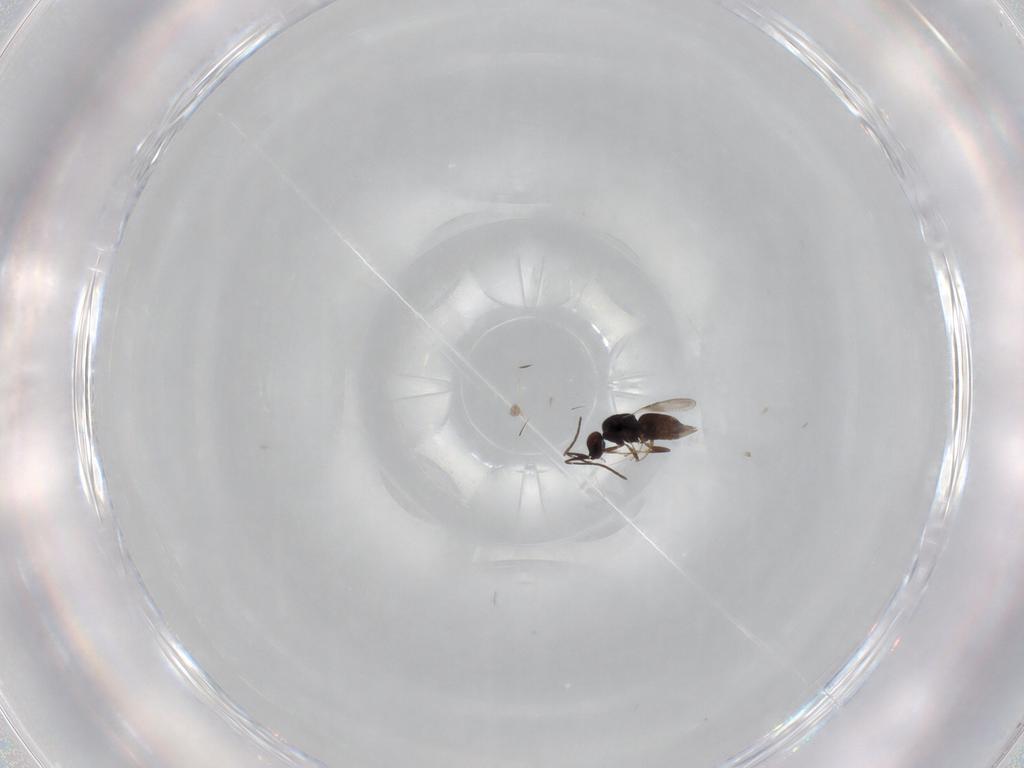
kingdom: Animalia
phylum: Arthropoda
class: Insecta
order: Hymenoptera
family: Ceraphronidae
